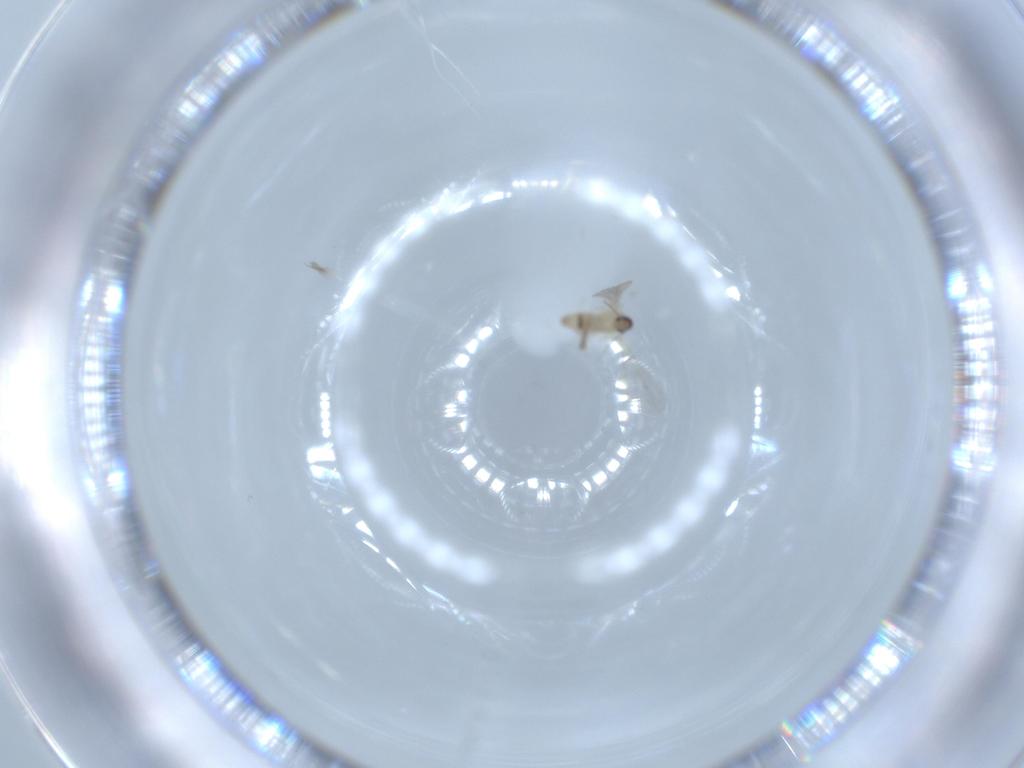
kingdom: Animalia
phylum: Arthropoda
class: Insecta
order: Diptera
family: Cecidomyiidae
